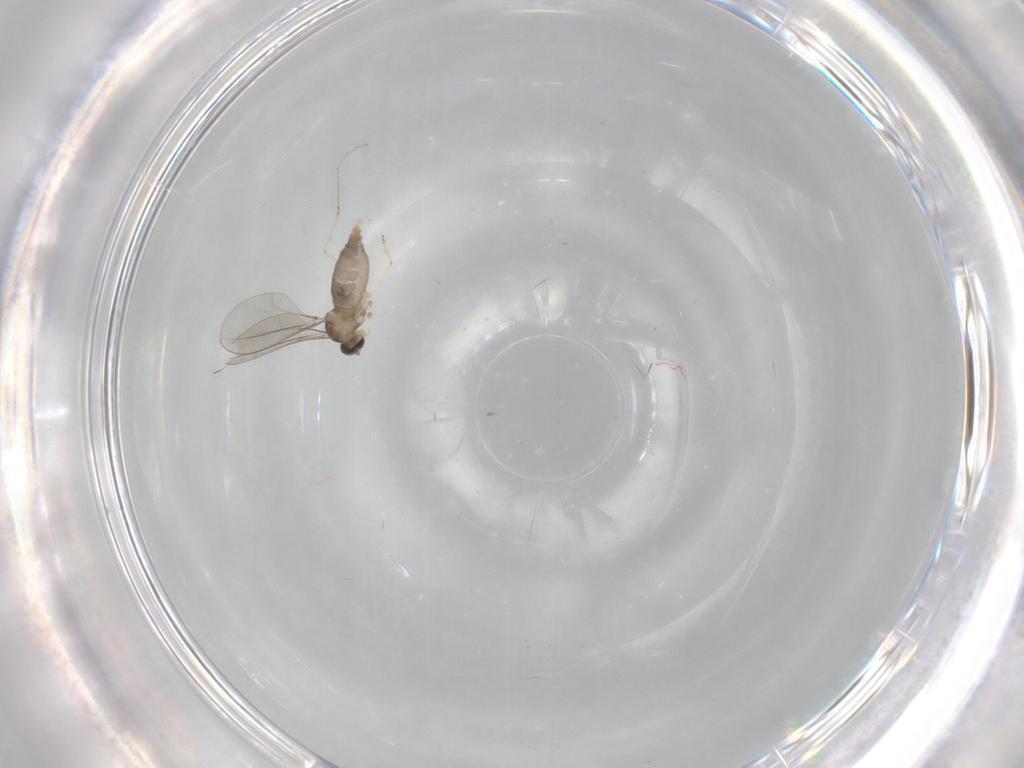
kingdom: Animalia
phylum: Arthropoda
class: Insecta
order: Diptera
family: Cecidomyiidae
